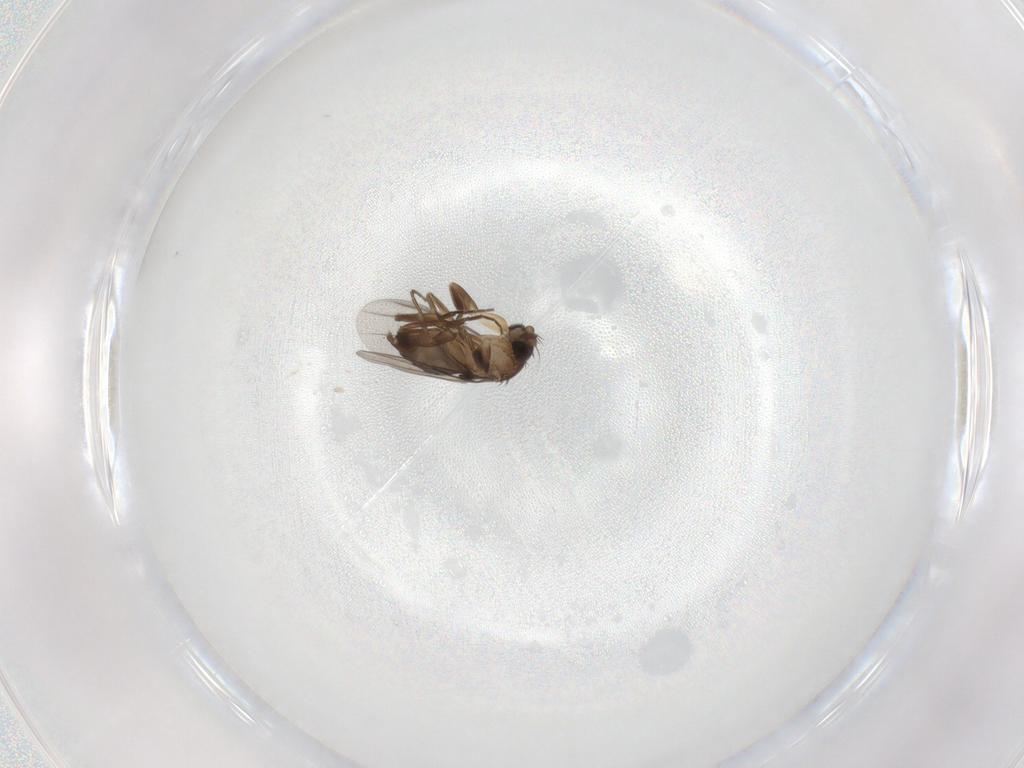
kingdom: Animalia
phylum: Arthropoda
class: Insecta
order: Diptera
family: Phoridae
